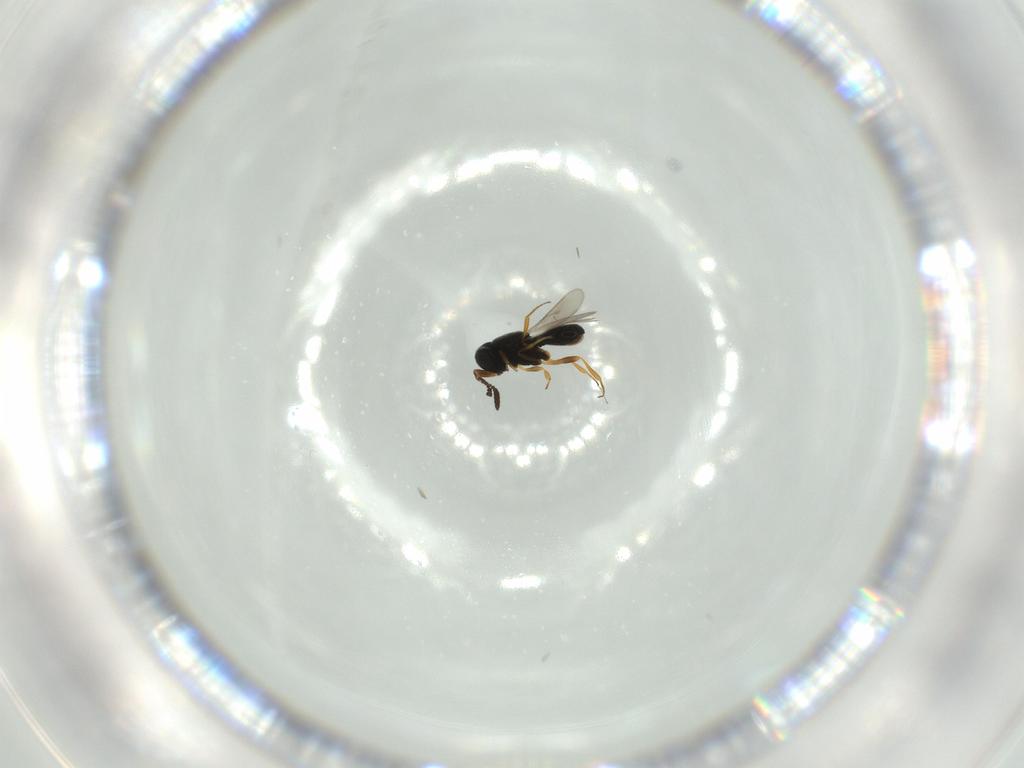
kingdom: Animalia
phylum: Arthropoda
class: Insecta
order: Hymenoptera
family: Scelionidae
